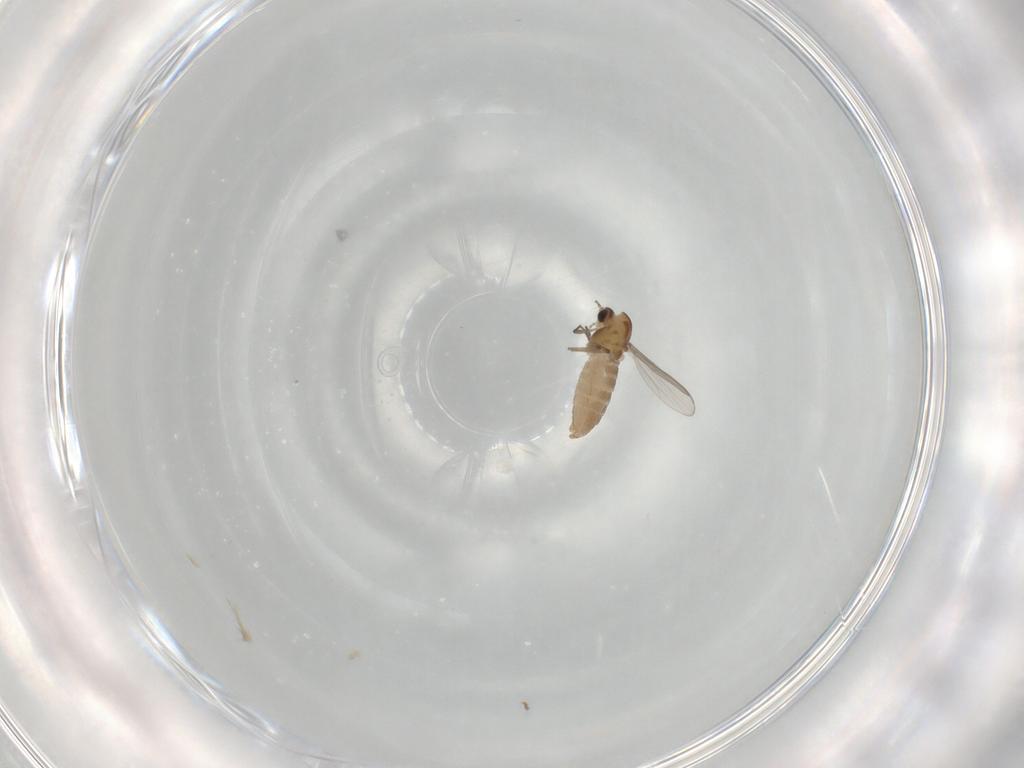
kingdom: Animalia
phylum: Arthropoda
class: Insecta
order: Diptera
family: Chironomidae
